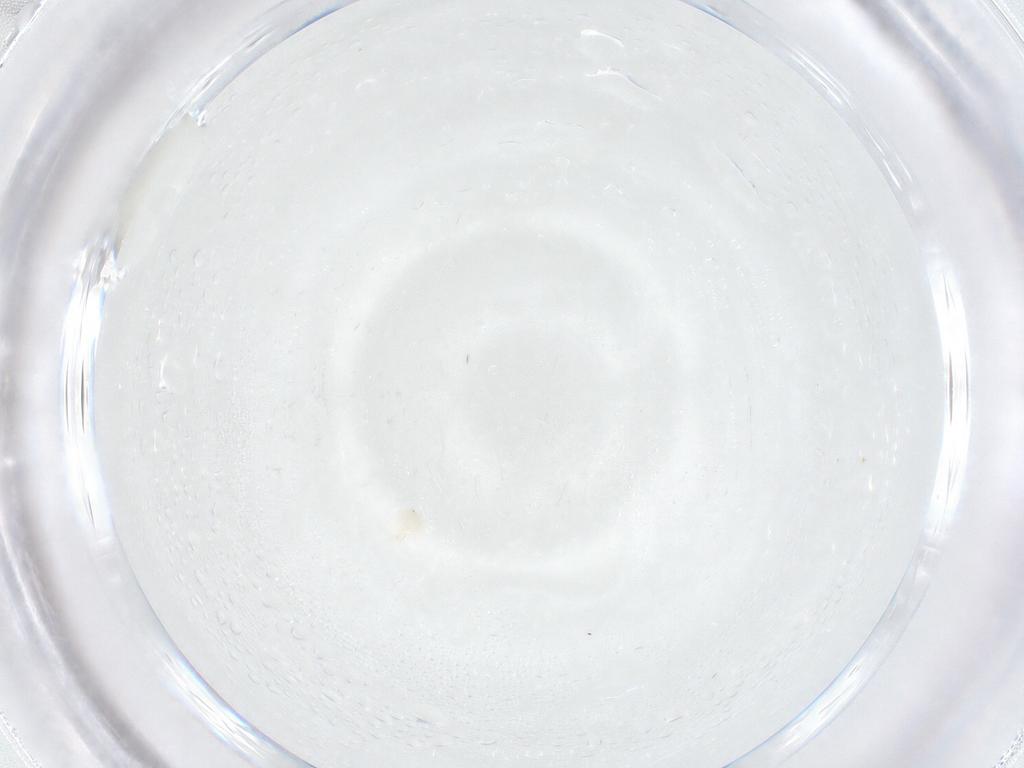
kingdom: Animalia
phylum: Arthropoda
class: Arachnida
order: Trombidiformes
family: Anystidae
